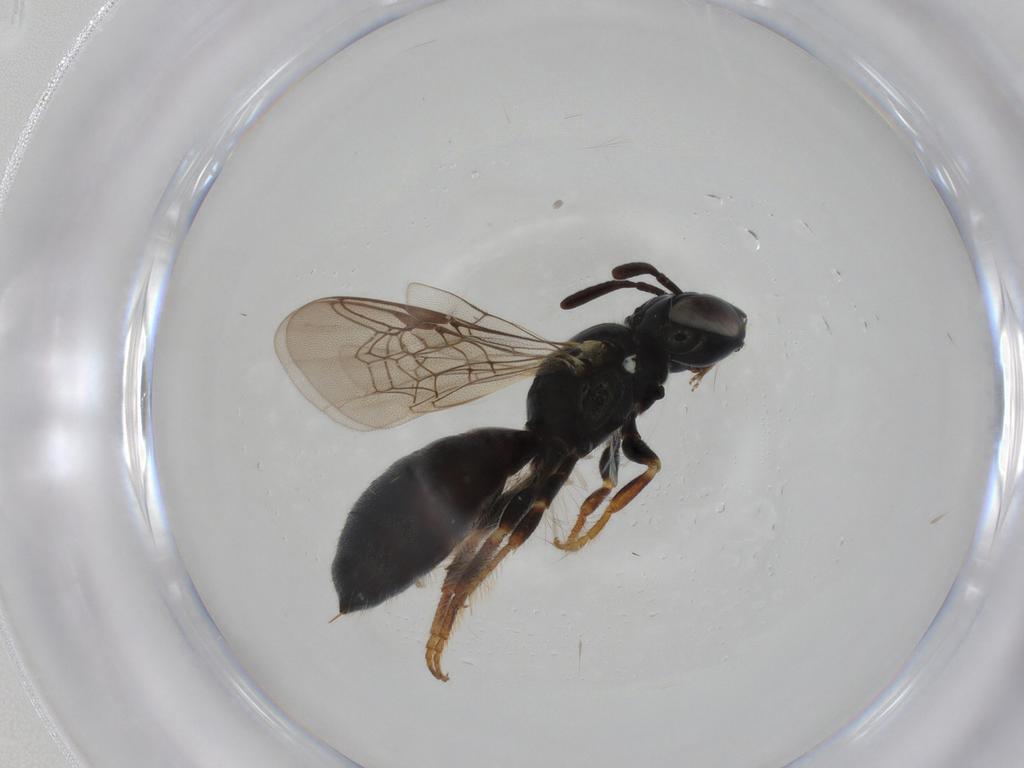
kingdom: Animalia
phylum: Arthropoda
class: Insecta
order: Hymenoptera
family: Formicidae
